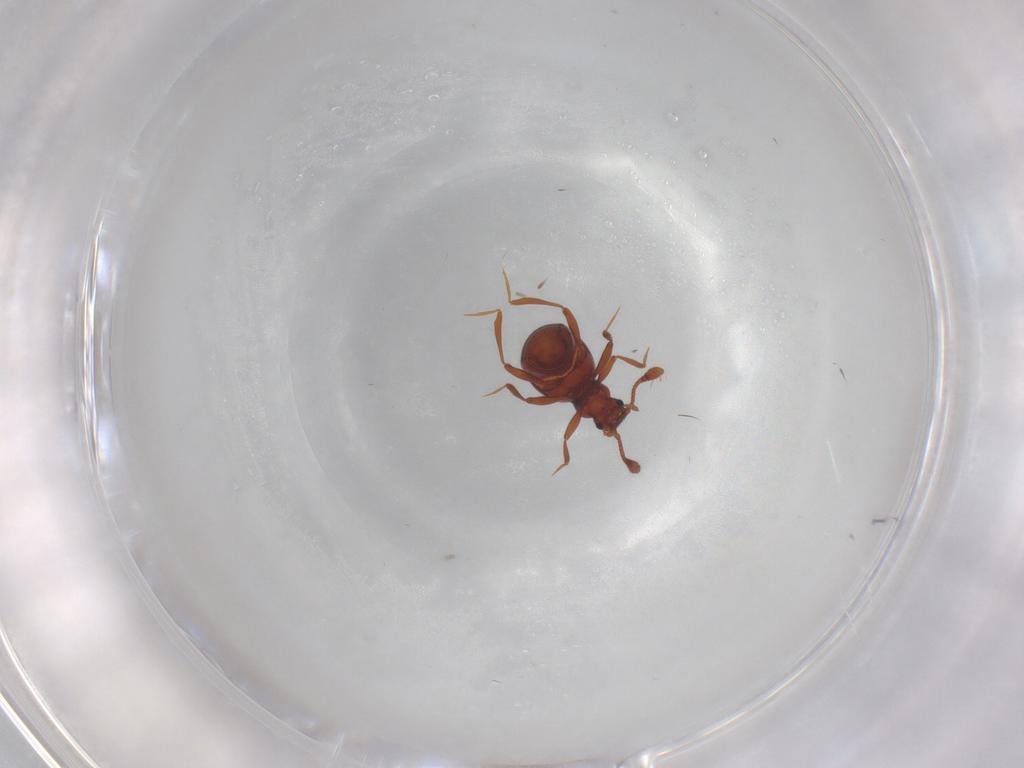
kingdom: Animalia
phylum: Arthropoda
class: Insecta
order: Coleoptera
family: Staphylinidae
